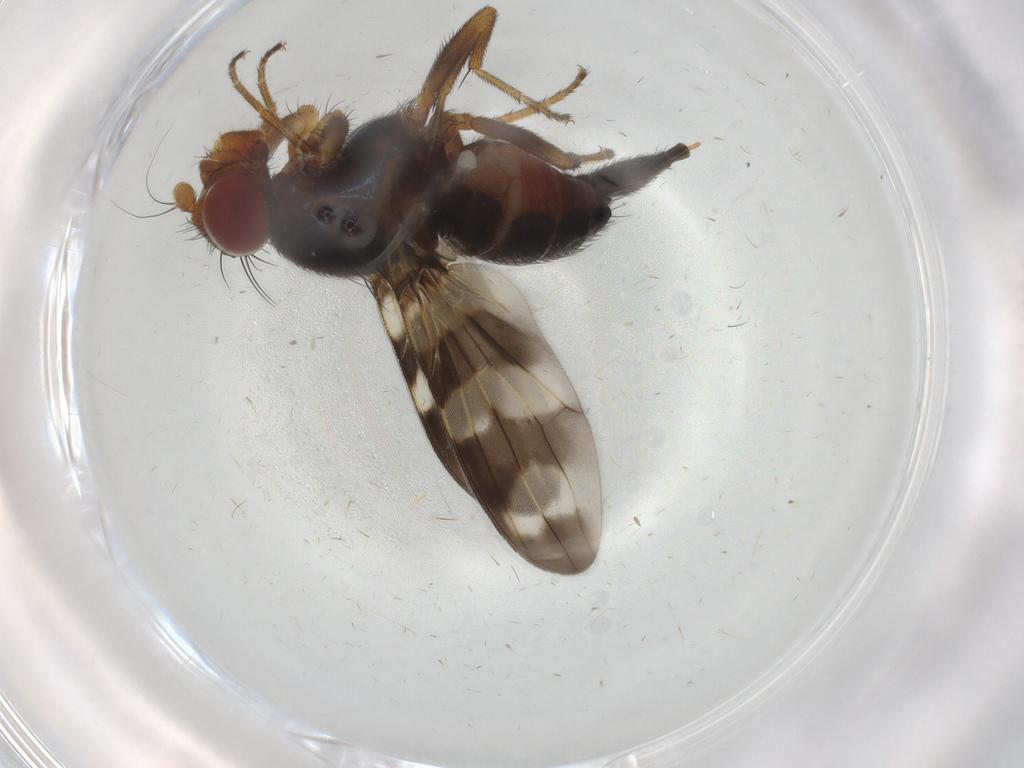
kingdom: Animalia
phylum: Arthropoda
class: Insecta
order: Diptera
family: Ulidiidae
